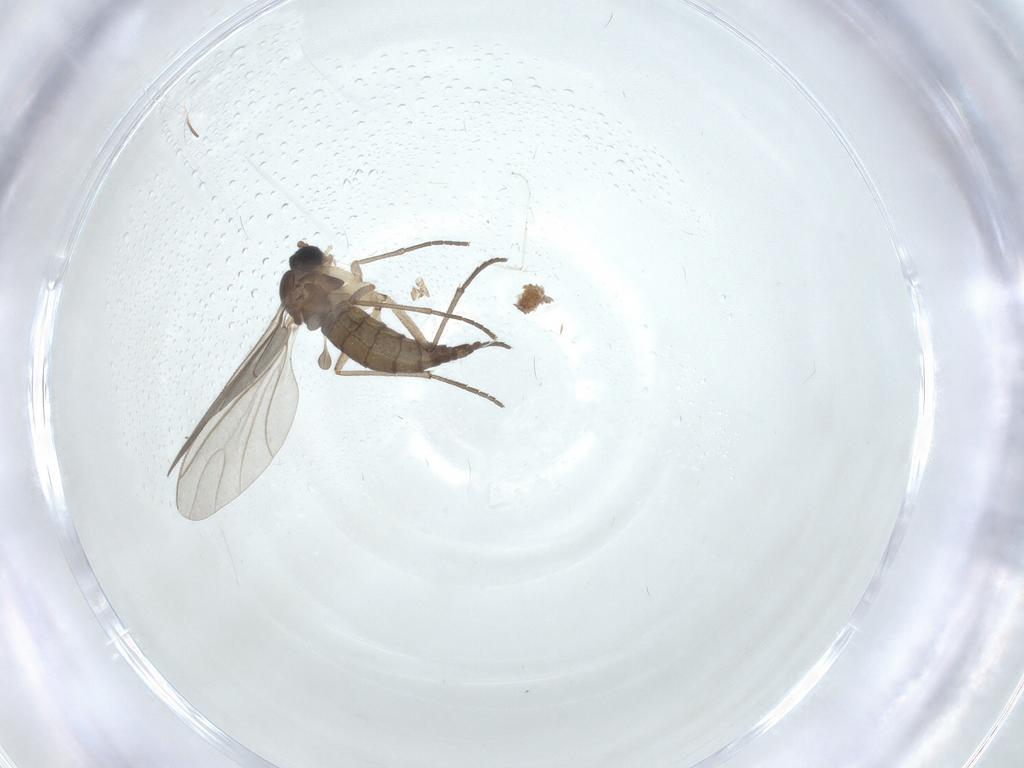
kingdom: Animalia
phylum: Arthropoda
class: Insecta
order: Diptera
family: Sciaridae
